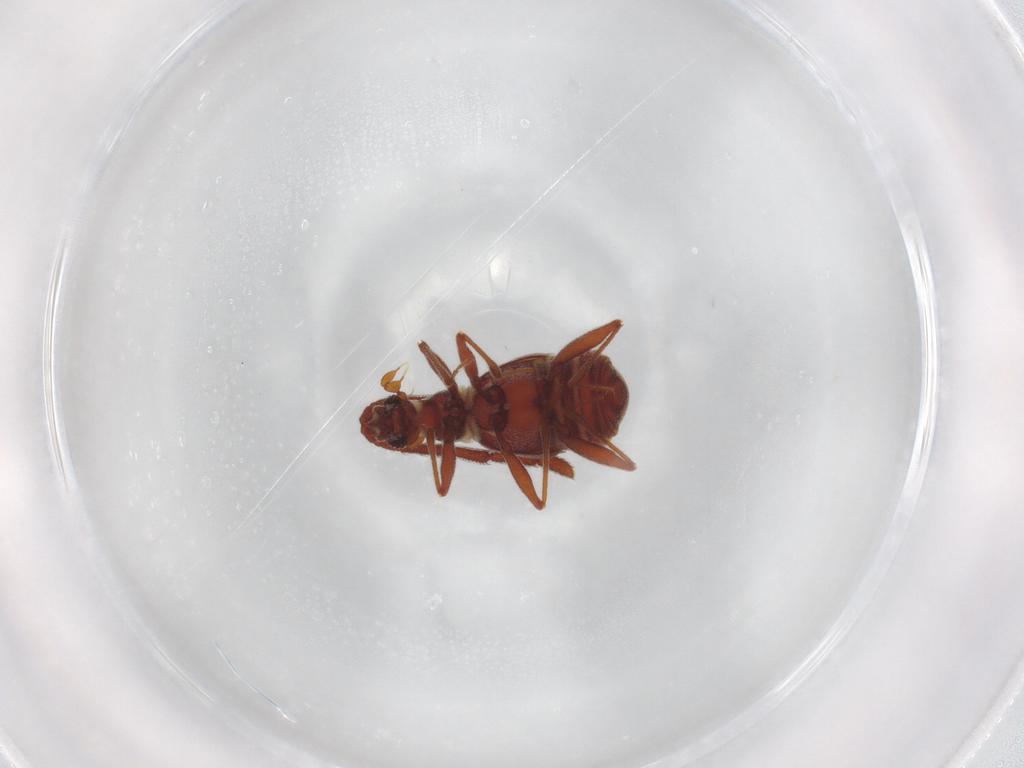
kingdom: Animalia
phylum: Arthropoda
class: Insecta
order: Coleoptera
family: Staphylinidae
